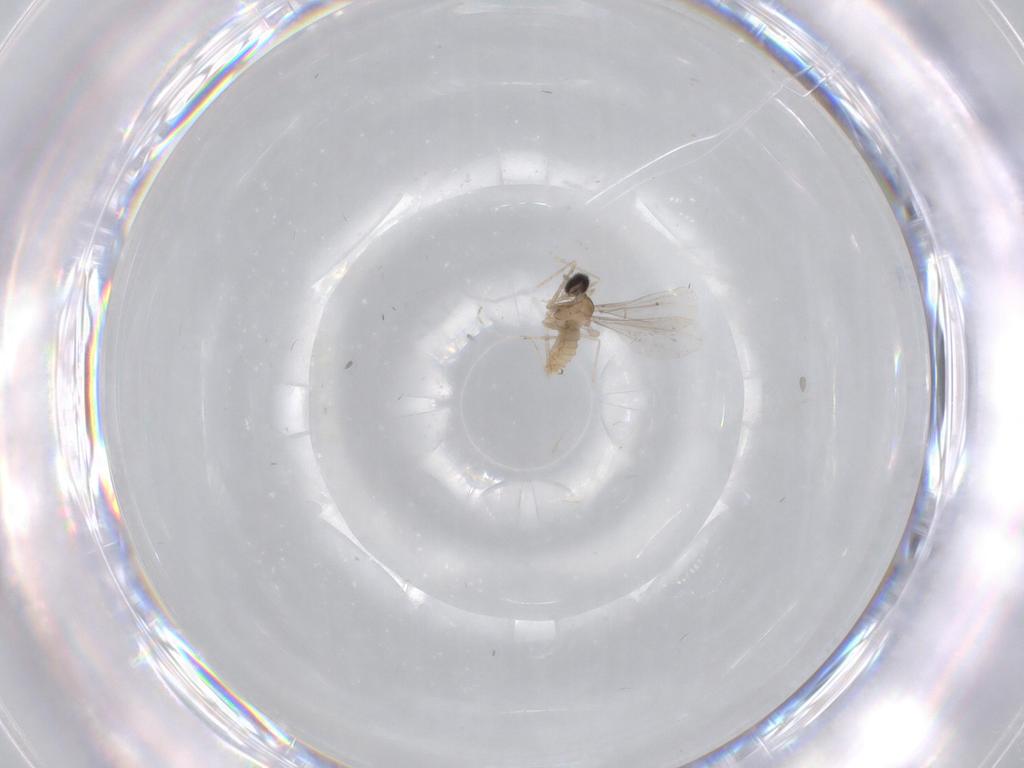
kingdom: Animalia
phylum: Arthropoda
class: Insecta
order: Diptera
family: Cecidomyiidae
